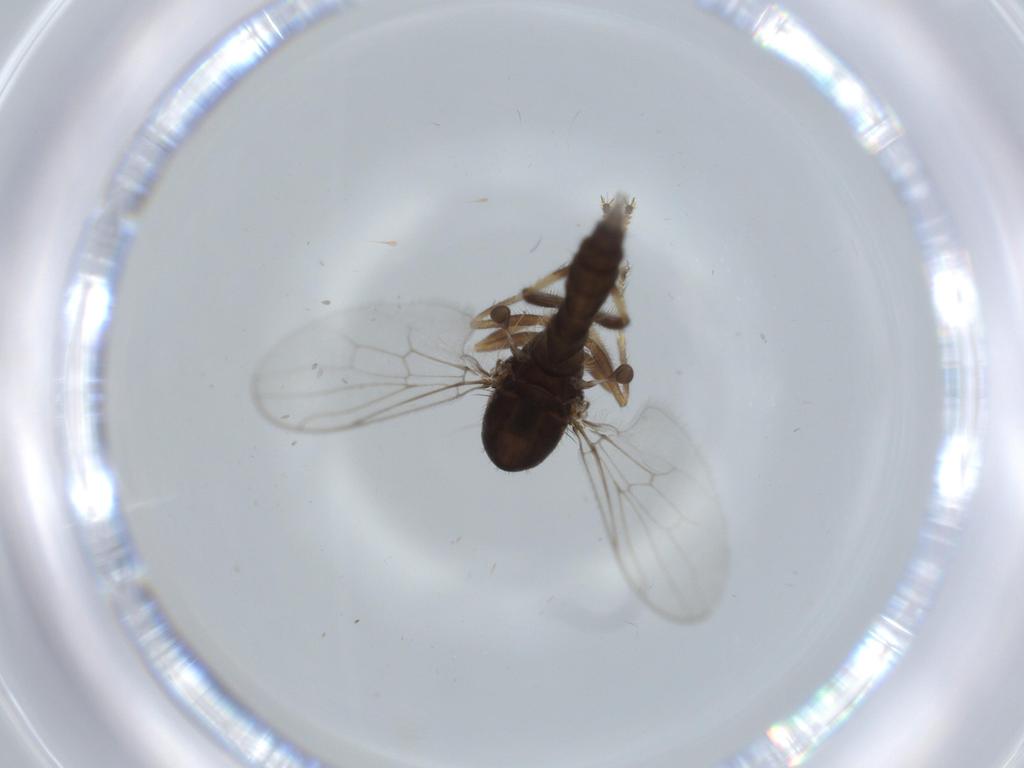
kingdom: Animalia
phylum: Arthropoda
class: Insecta
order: Diptera
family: Hybotidae
